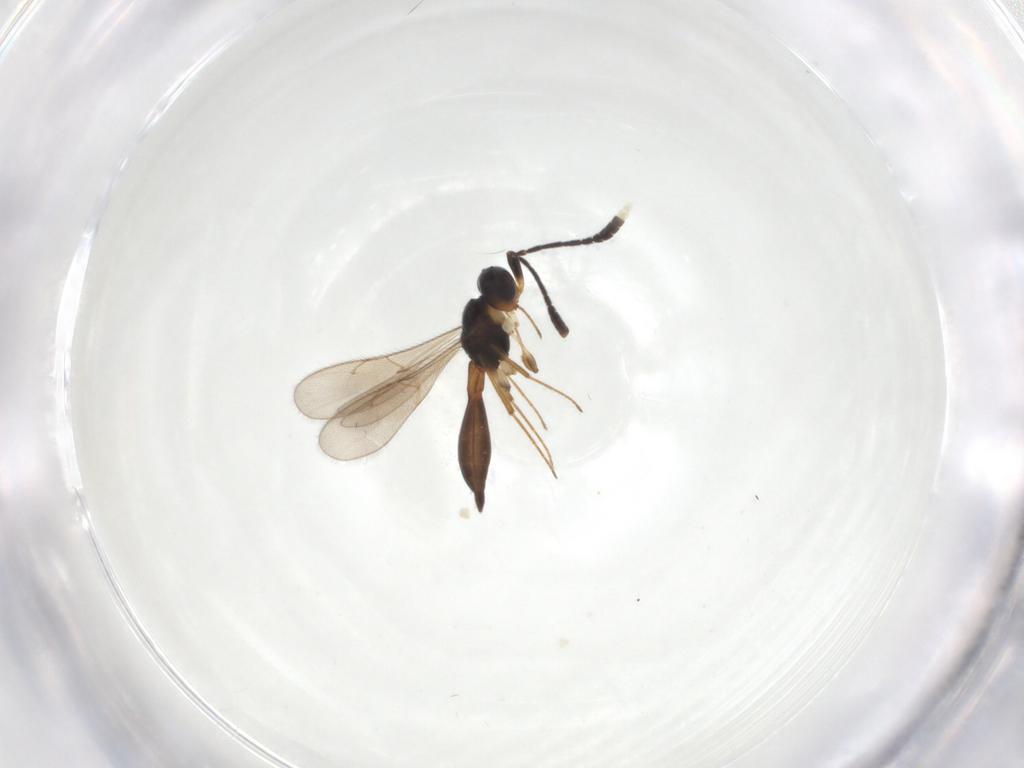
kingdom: Animalia
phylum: Arthropoda
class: Insecta
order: Hymenoptera
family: Scelionidae
